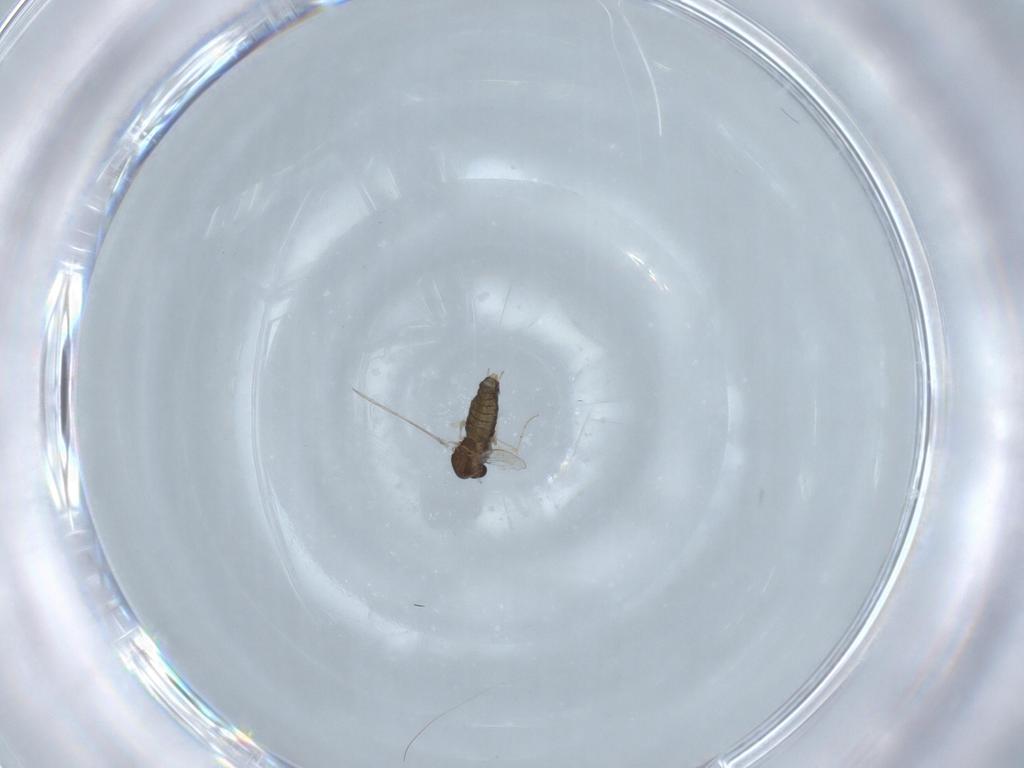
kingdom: Animalia
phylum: Arthropoda
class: Insecta
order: Diptera
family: Chironomidae
